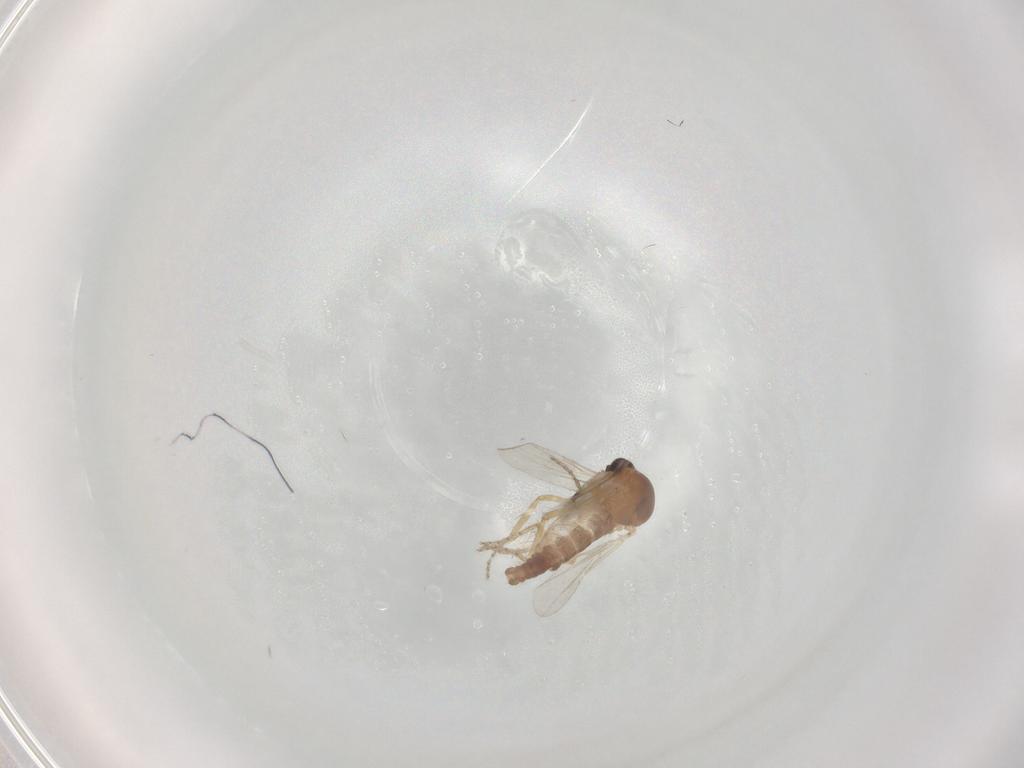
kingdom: Animalia
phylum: Arthropoda
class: Insecta
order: Diptera
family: Ceratopogonidae
